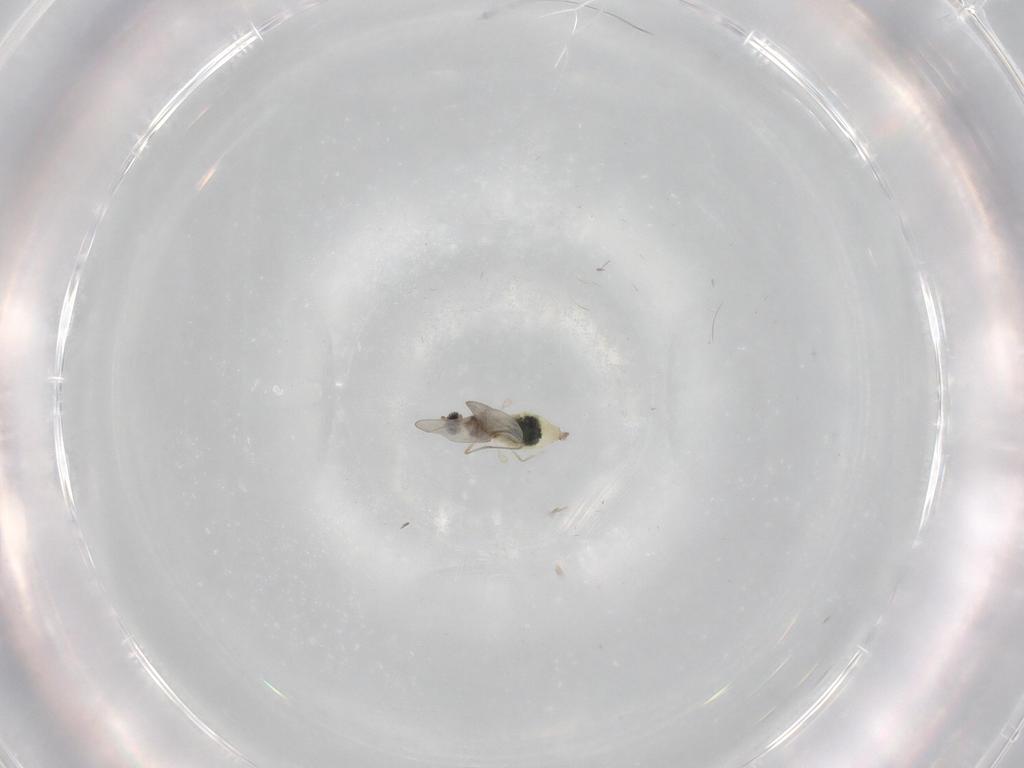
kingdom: Animalia
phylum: Arthropoda
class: Insecta
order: Diptera
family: Cecidomyiidae
